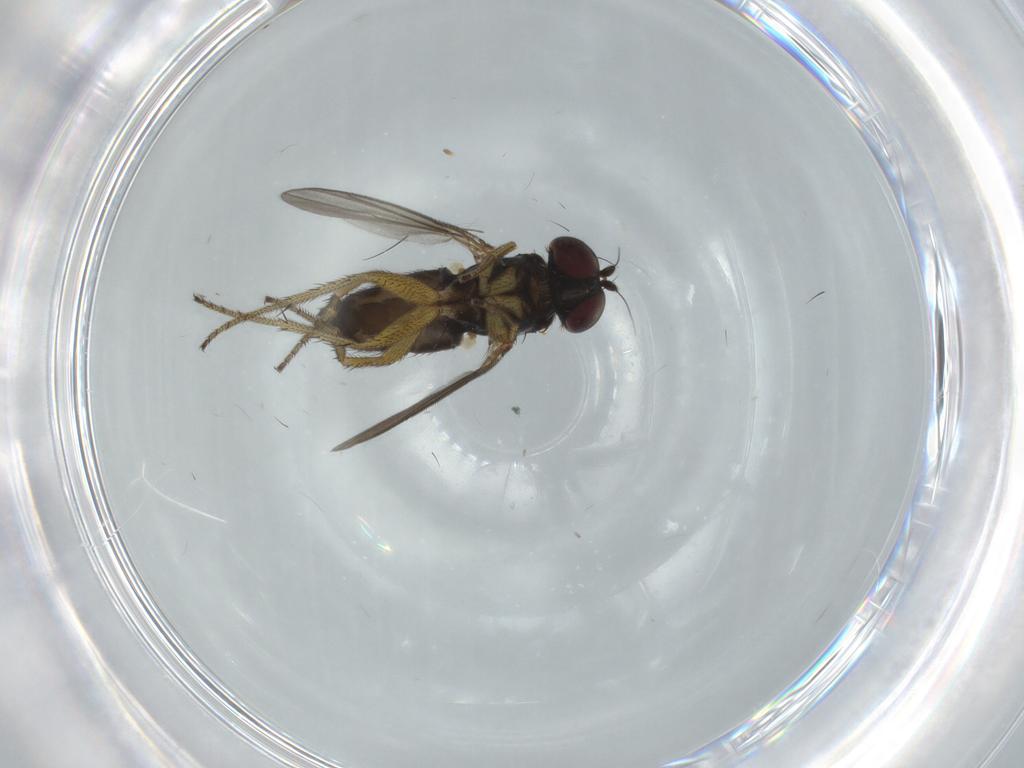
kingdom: Animalia
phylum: Arthropoda
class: Insecta
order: Diptera
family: Dolichopodidae
